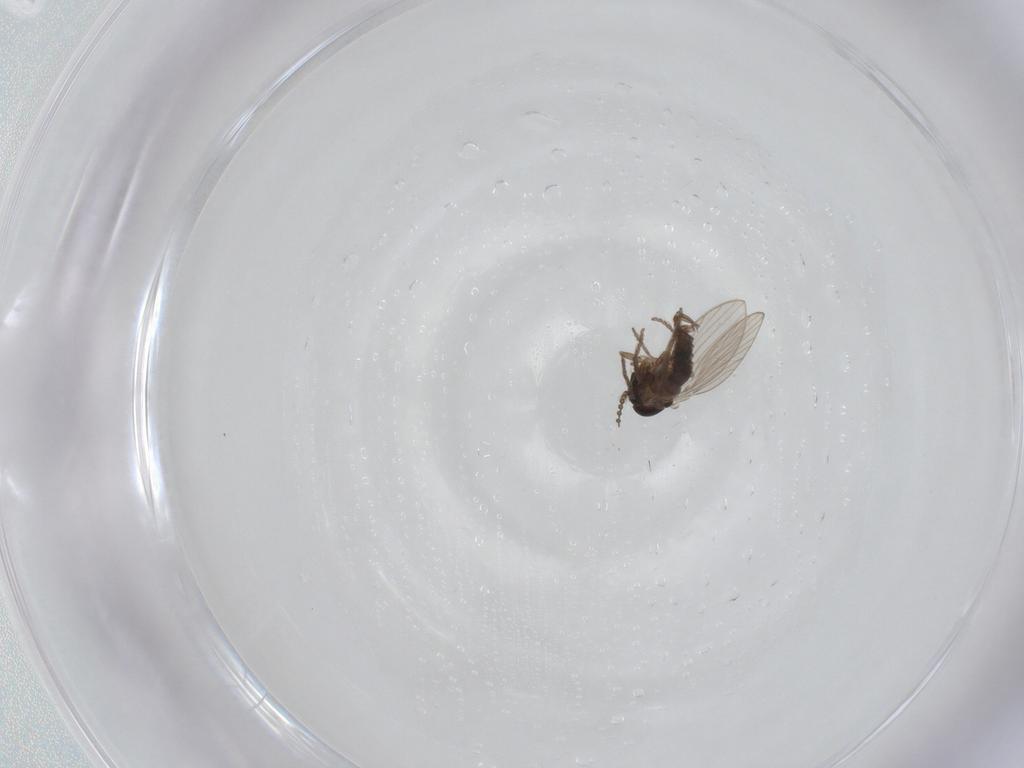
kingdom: Animalia
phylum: Arthropoda
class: Insecta
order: Diptera
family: Psychodidae
